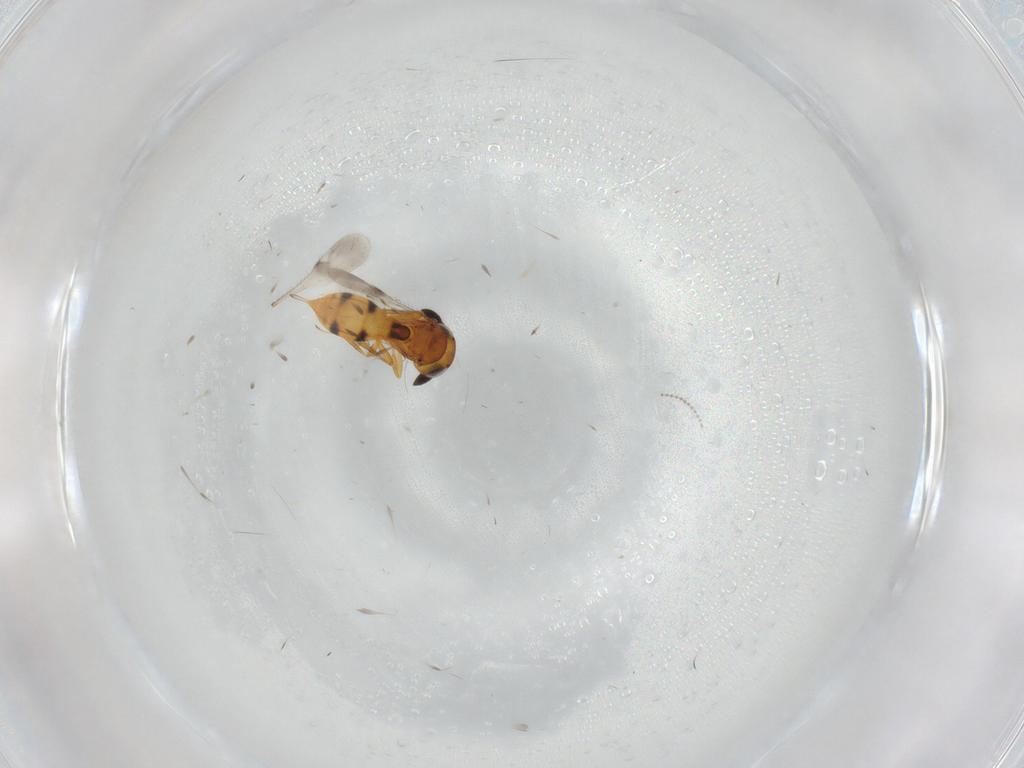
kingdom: Animalia
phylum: Arthropoda
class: Insecta
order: Hymenoptera
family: Scelionidae
